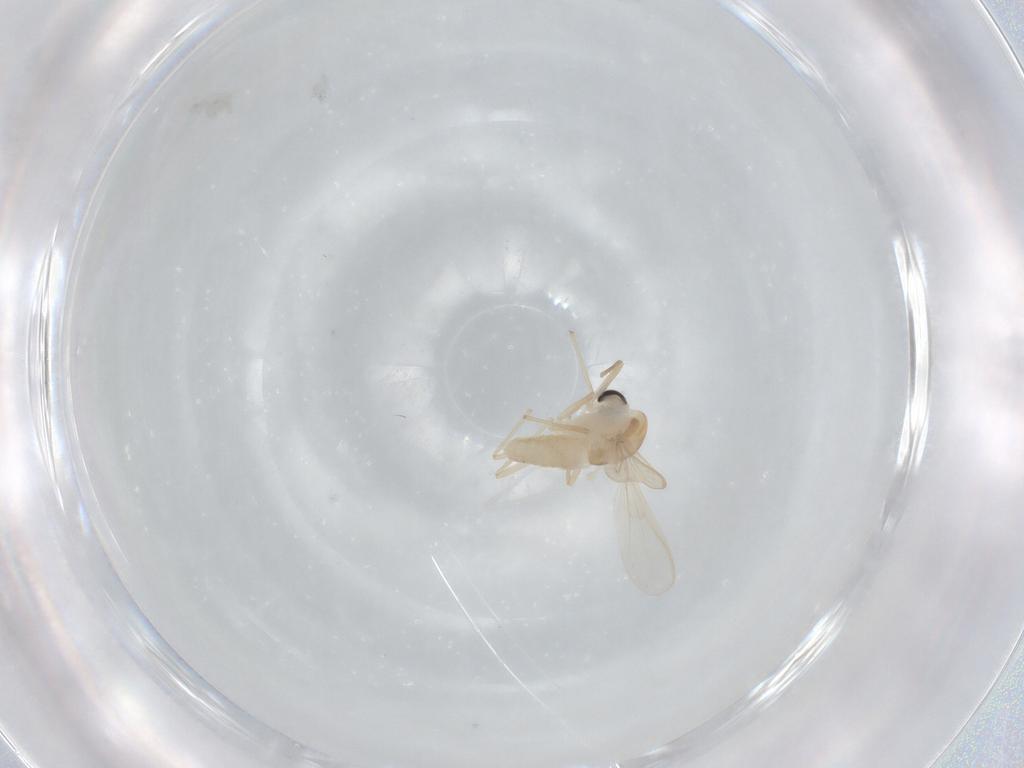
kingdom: Animalia
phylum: Arthropoda
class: Insecta
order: Diptera
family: Chironomidae
